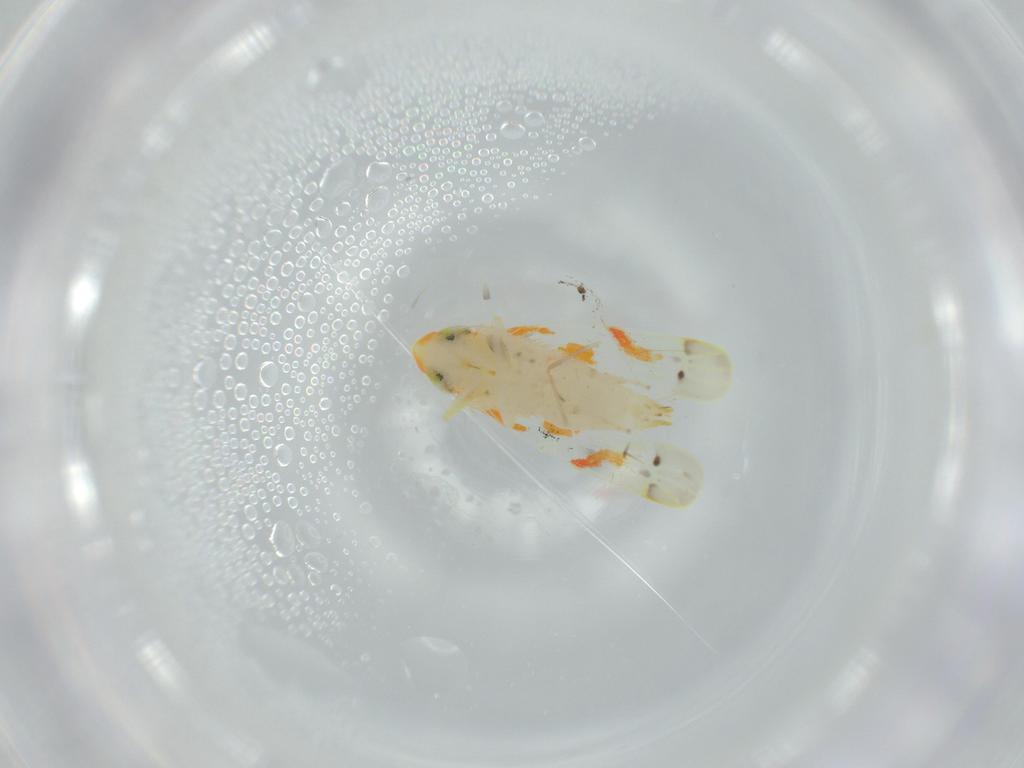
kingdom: Animalia
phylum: Arthropoda
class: Insecta
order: Hemiptera
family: Cicadellidae
